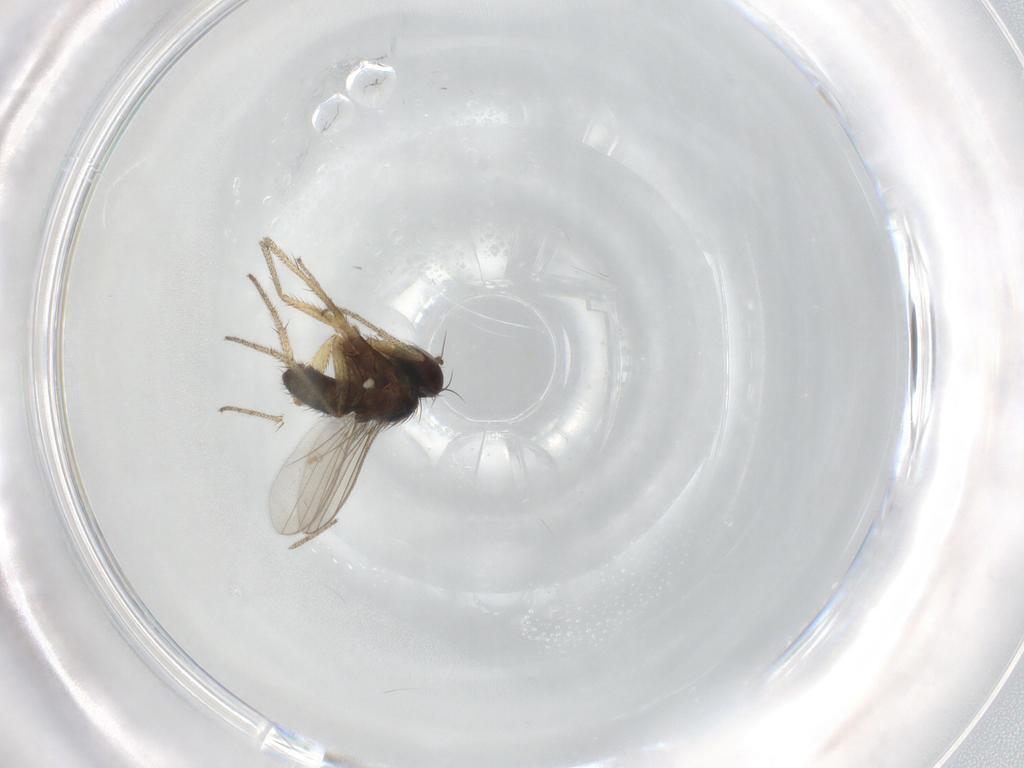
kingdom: Animalia
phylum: Arthropoda
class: Insecta
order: Diptera
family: Dolichopodidae
